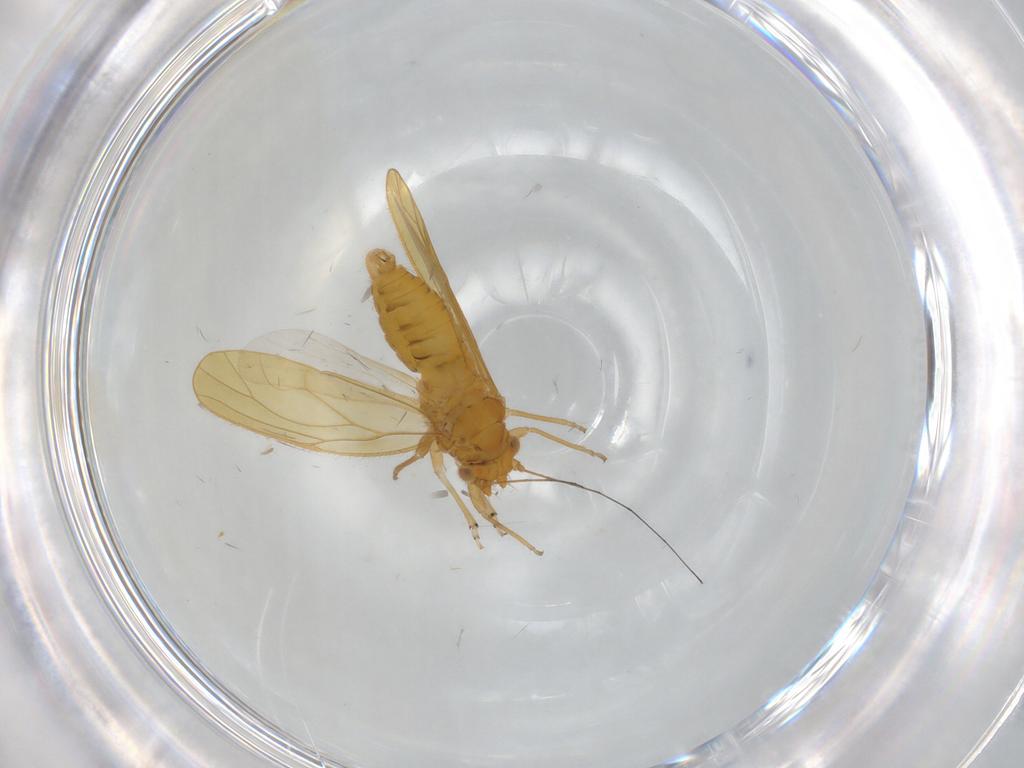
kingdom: Animalia
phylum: Arthropoda
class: Insecta
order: Hemiptera
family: Psyllidae
